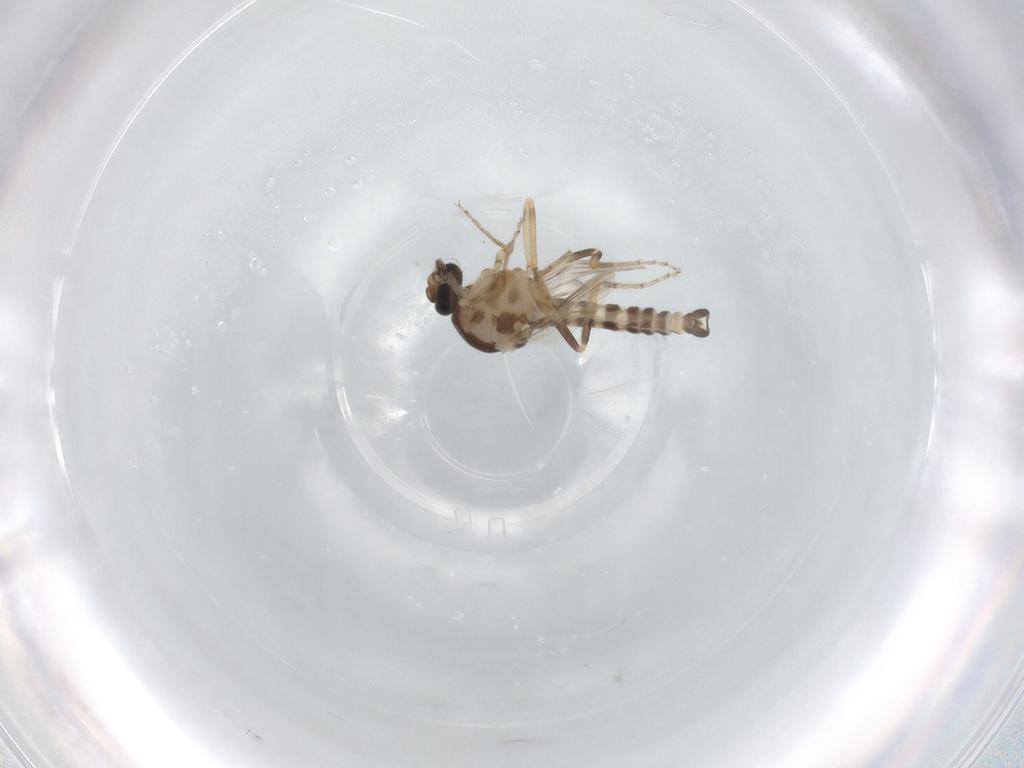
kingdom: Animalia
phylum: Arthropoda
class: Insecta
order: Diptera
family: Ceratopogonidae
